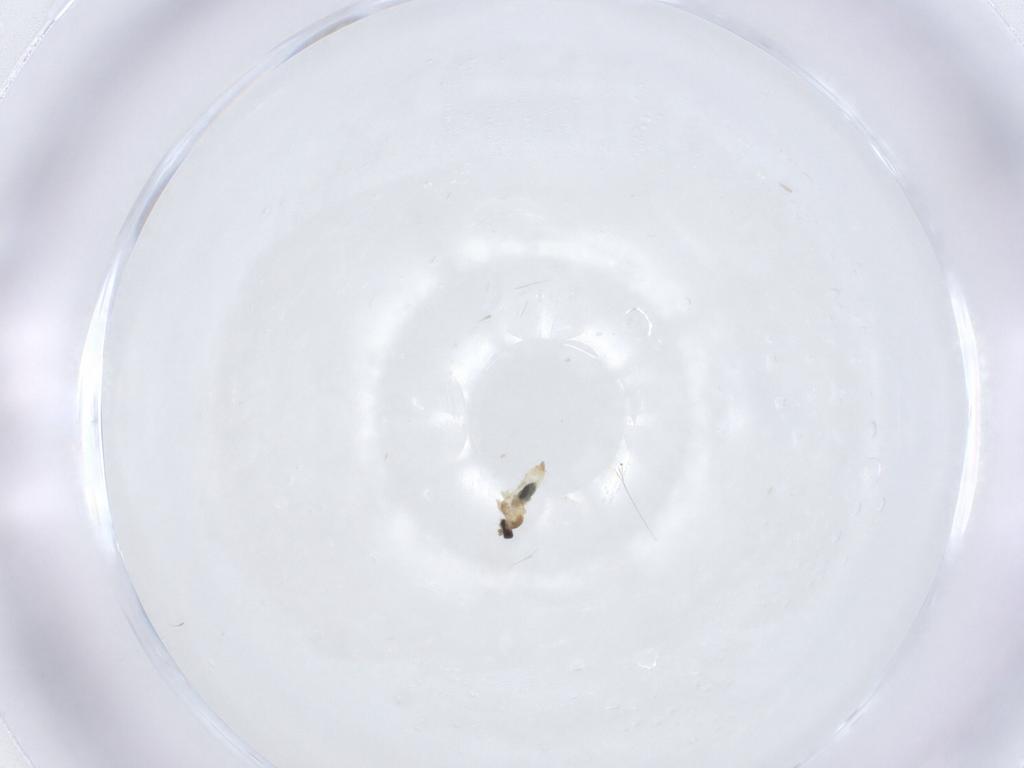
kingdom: Animalia
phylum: Arthropoda
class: Insecta
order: Diptera
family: Cecidomyiidae
